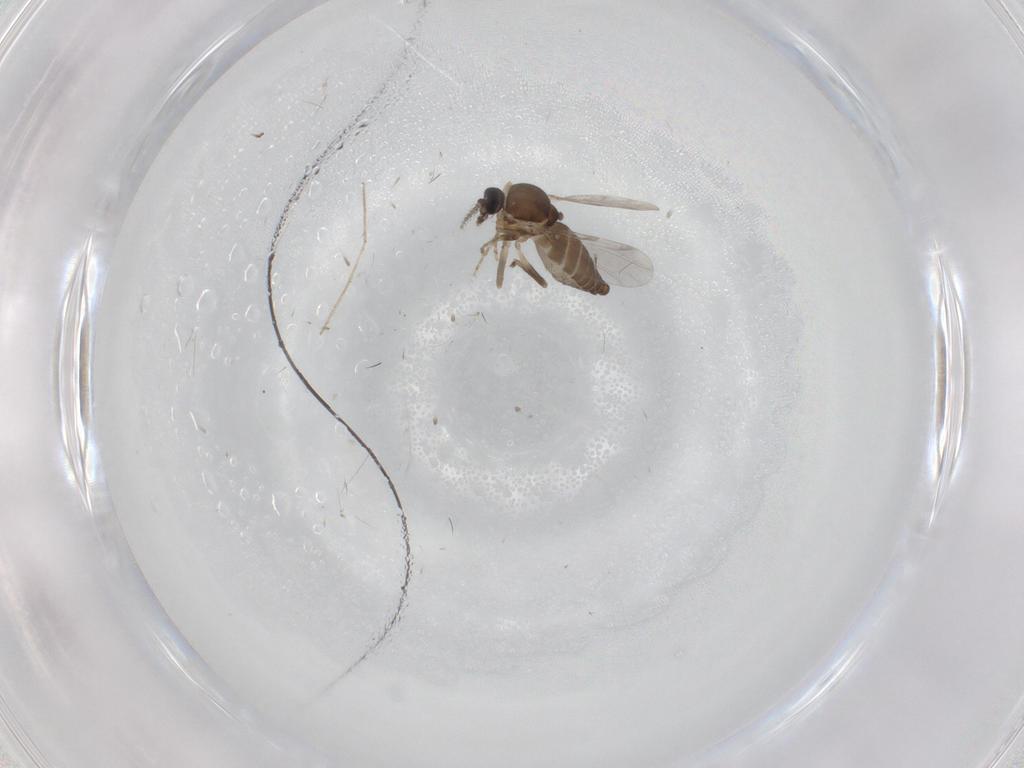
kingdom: Animalia
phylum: Arthropoda
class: Insecta
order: Diptera
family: Ceratopogonidae
